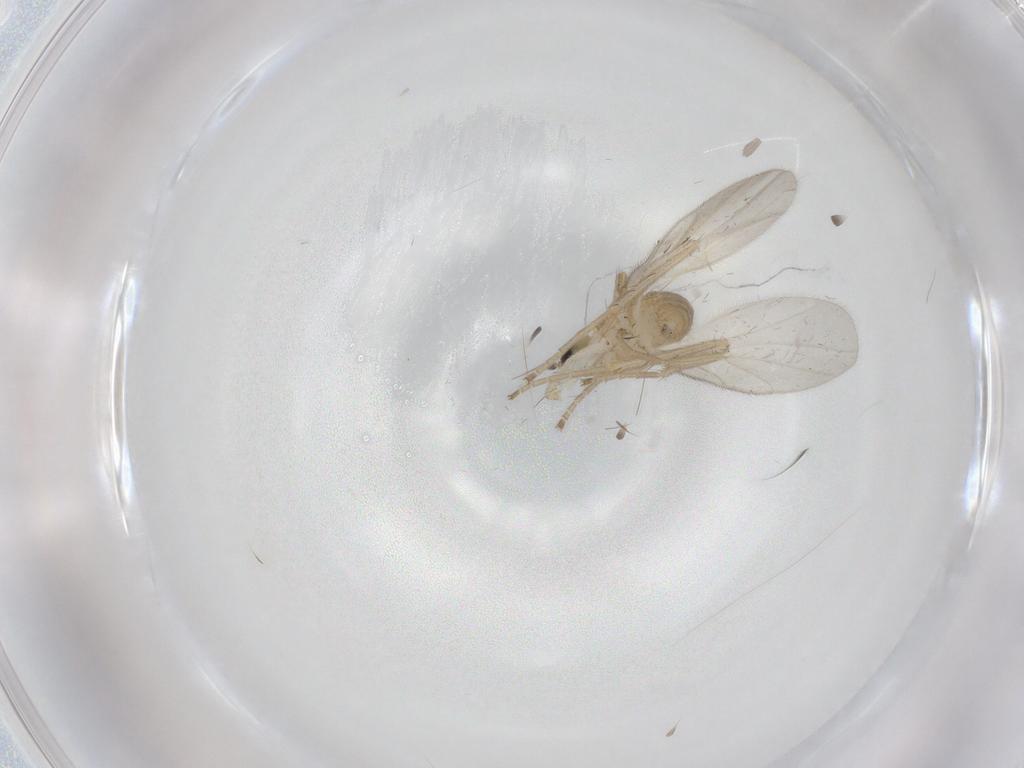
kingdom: Animalia
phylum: Arthropoda
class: Insecta
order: Diptera
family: Hybotidae
